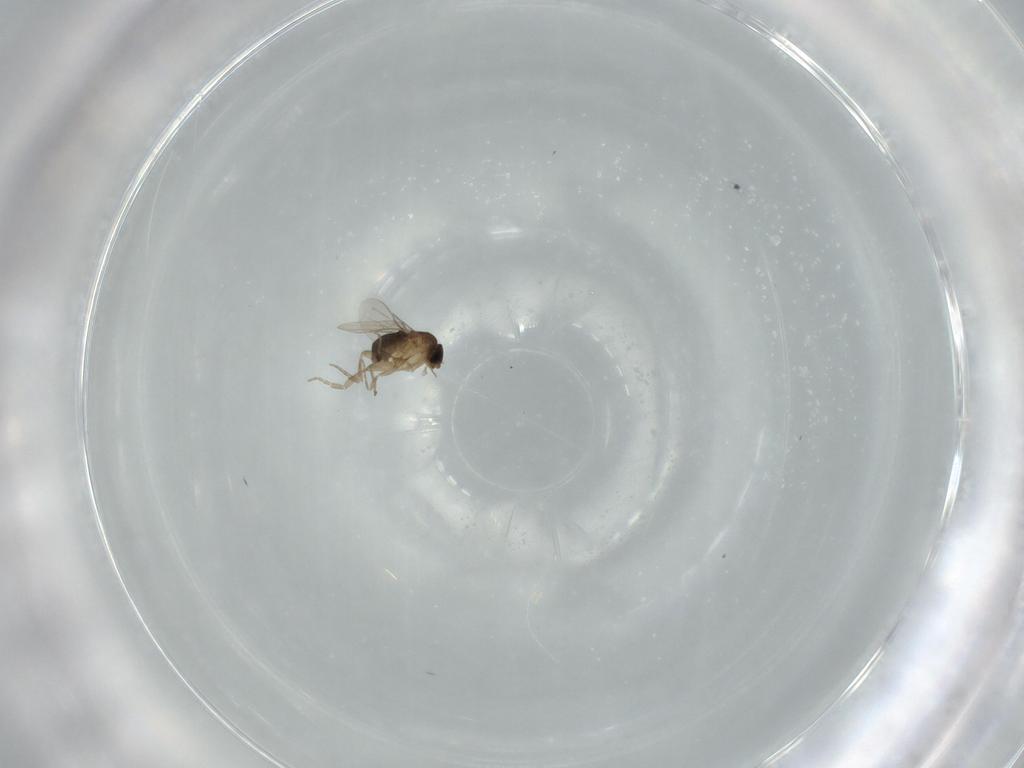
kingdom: Animalia
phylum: Arthropoda
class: Insecta
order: Diptera
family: Phoridae
